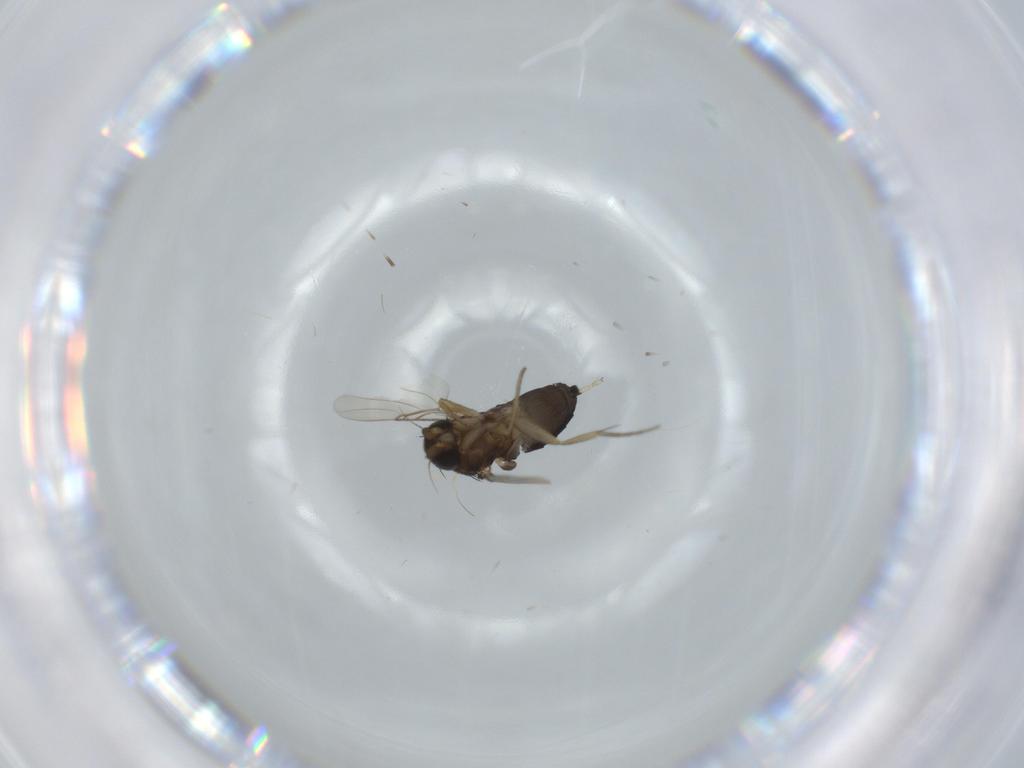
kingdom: Animalia
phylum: Arthropoda
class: Insecta
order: Diptera
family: Phoridae
